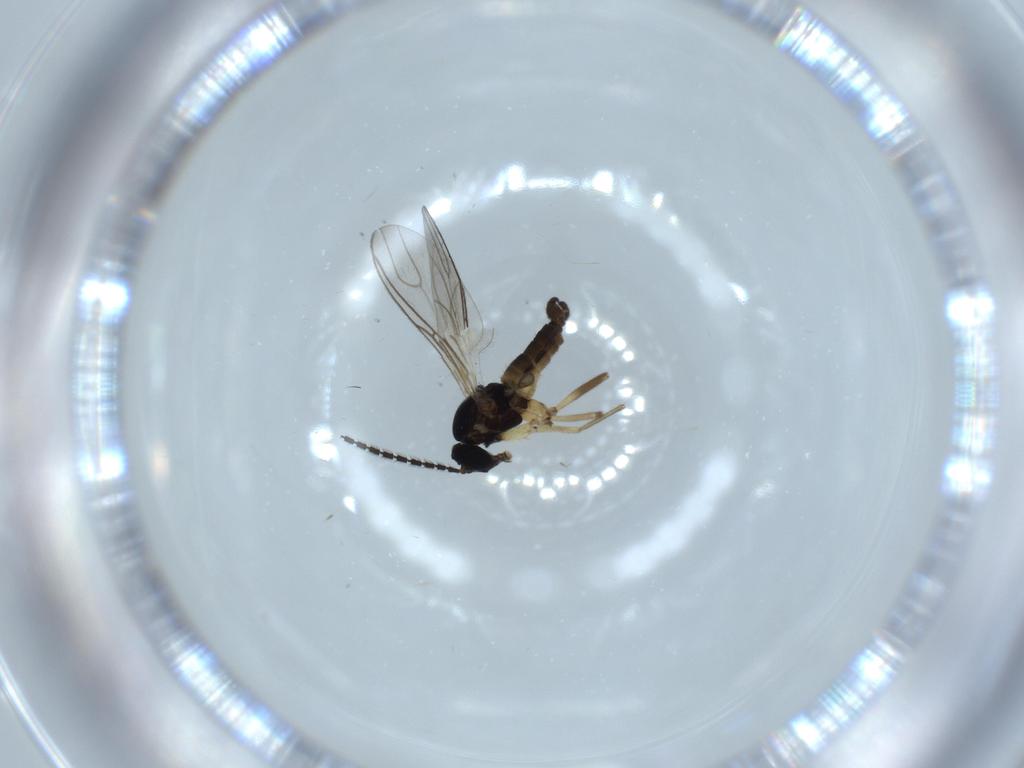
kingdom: Animalia
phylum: Arthropoda
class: Insecta
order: Diptera
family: Sciaridae
